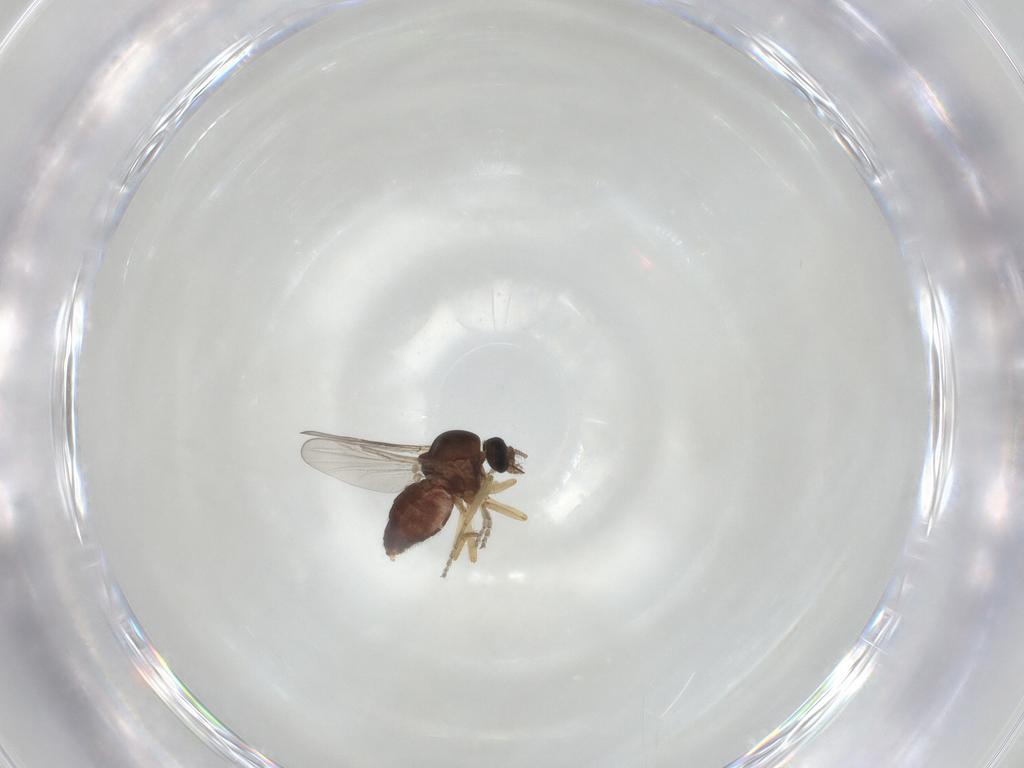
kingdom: Animalia
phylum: Arthropoda
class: Insecta
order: Diptera
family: Ceratopogonidae
